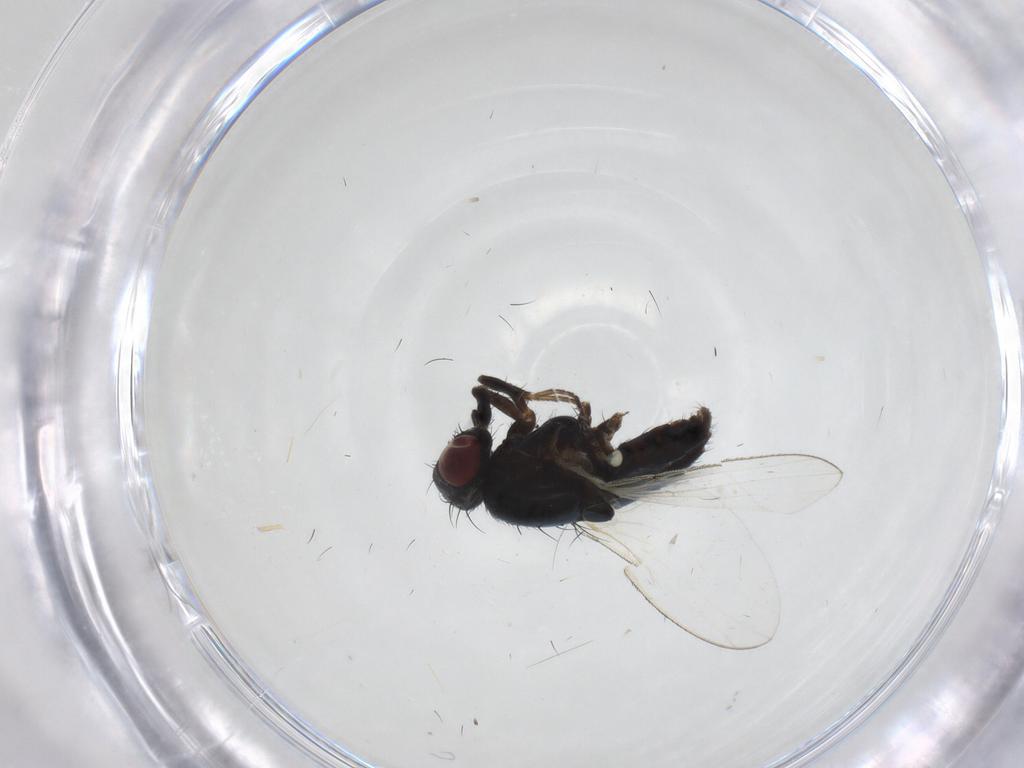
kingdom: Animalia
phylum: Arthropoda
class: Insecta
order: Diptera
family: Carnidae
